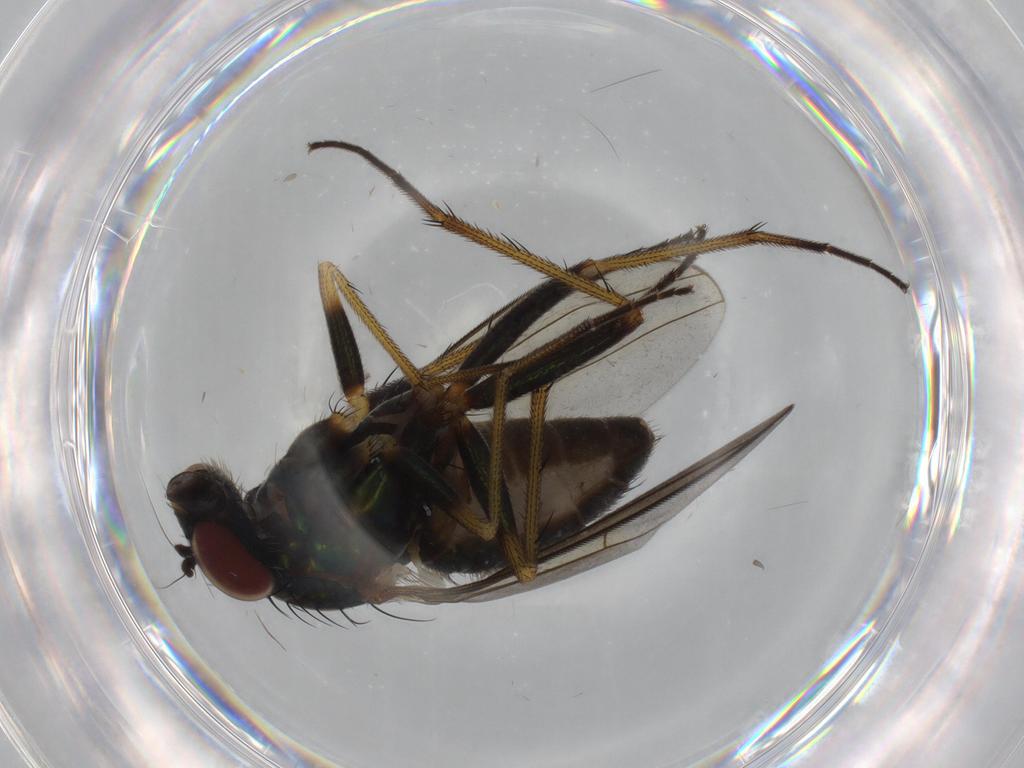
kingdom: Animalia
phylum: Arthropoda
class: Insecta
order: Diptera
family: Dolichopodidae
